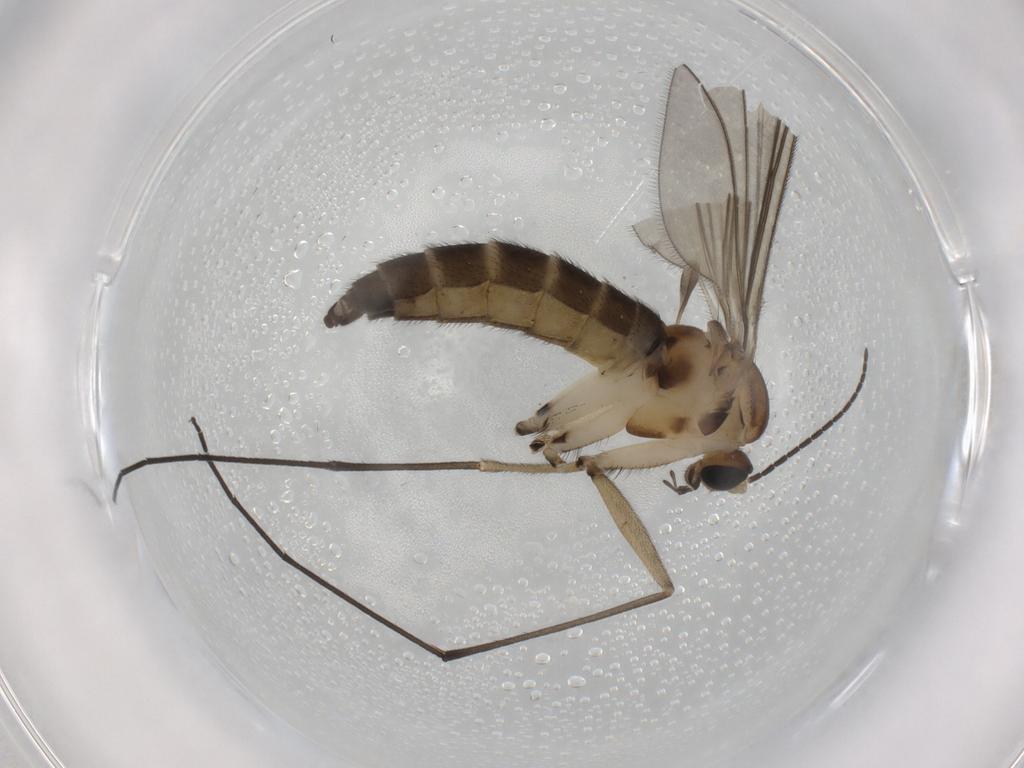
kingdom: Animalia
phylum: Arthropoda
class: Insecta
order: Diptera
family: Sciaridae
